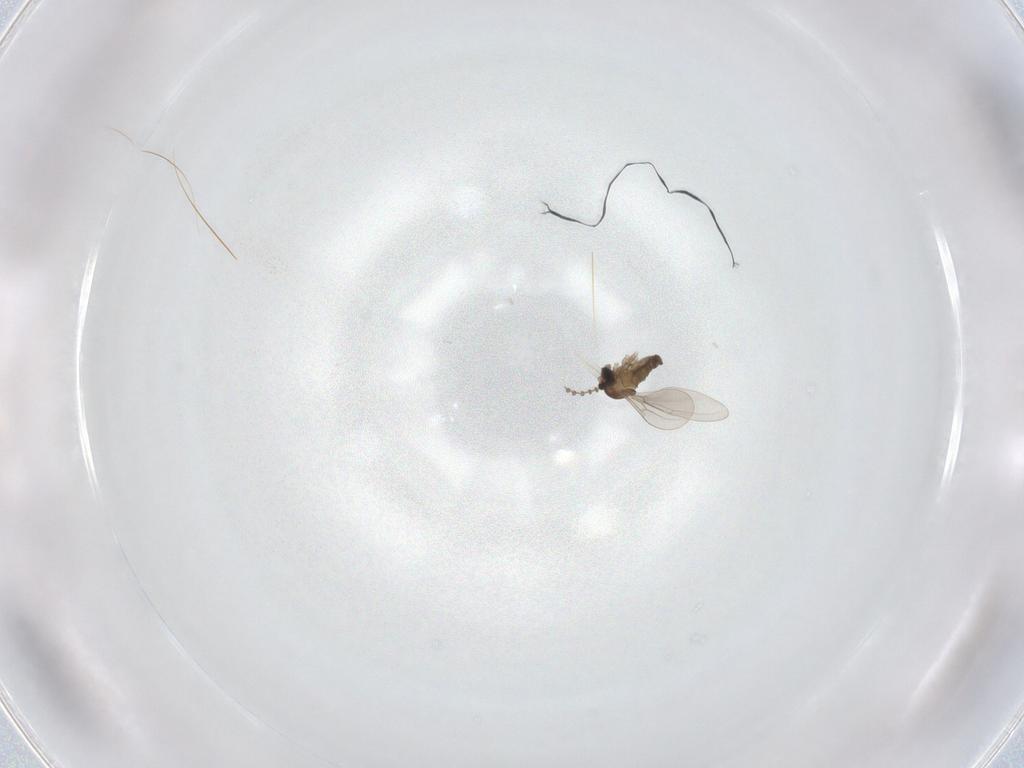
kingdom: Animalia
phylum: Arthropoda
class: Insecta
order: Diptera
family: Cecidomyiidae
